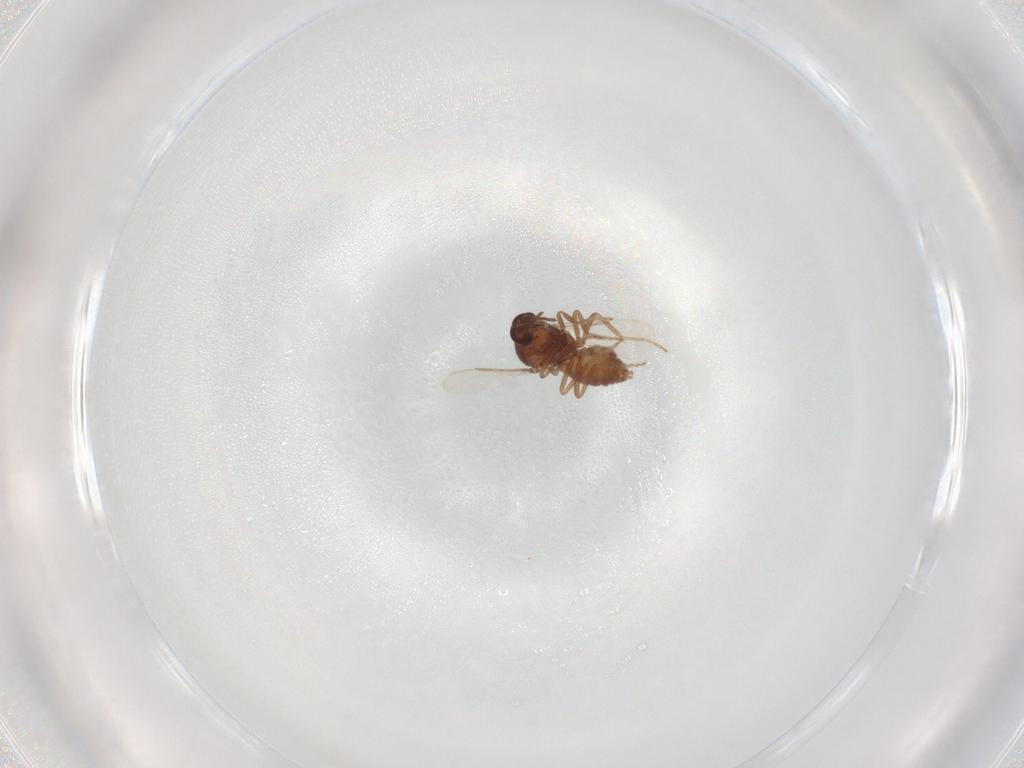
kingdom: Animalia
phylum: Arthropoda
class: Insecta
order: Diptera
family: Ceratopogonidae
